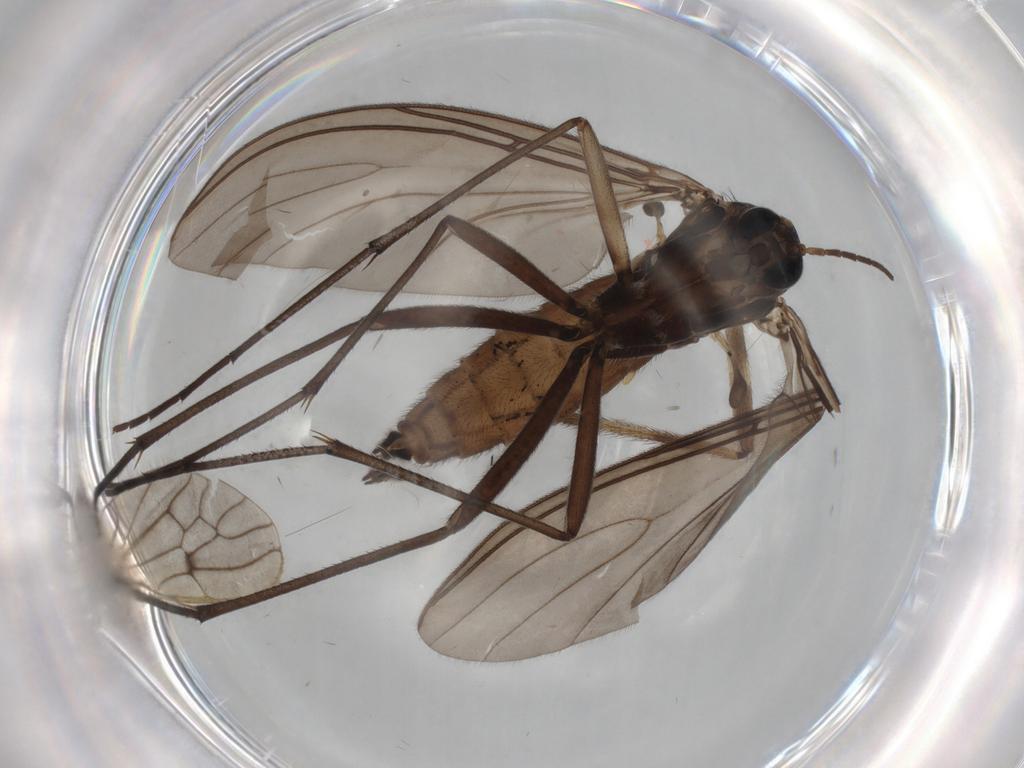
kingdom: Animalia
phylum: Arthropoda
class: Insecta
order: Diptera
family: Sciaridae
